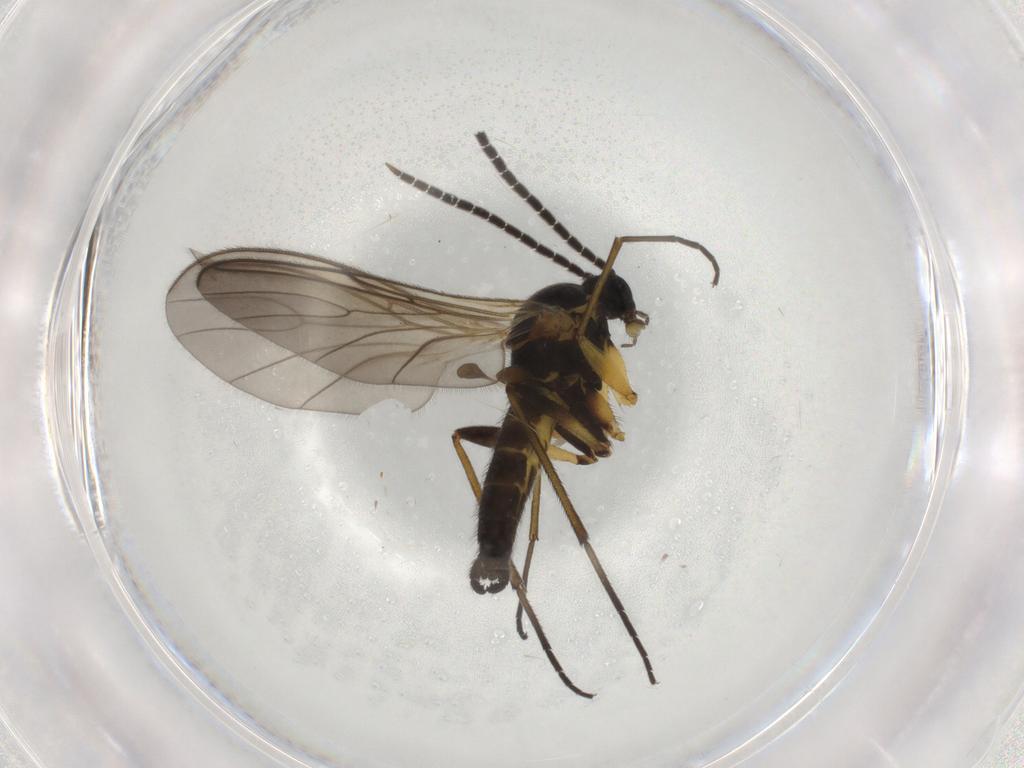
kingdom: Animalia
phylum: Arthropoda
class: Insecta
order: Diptera
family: Sciaridae
